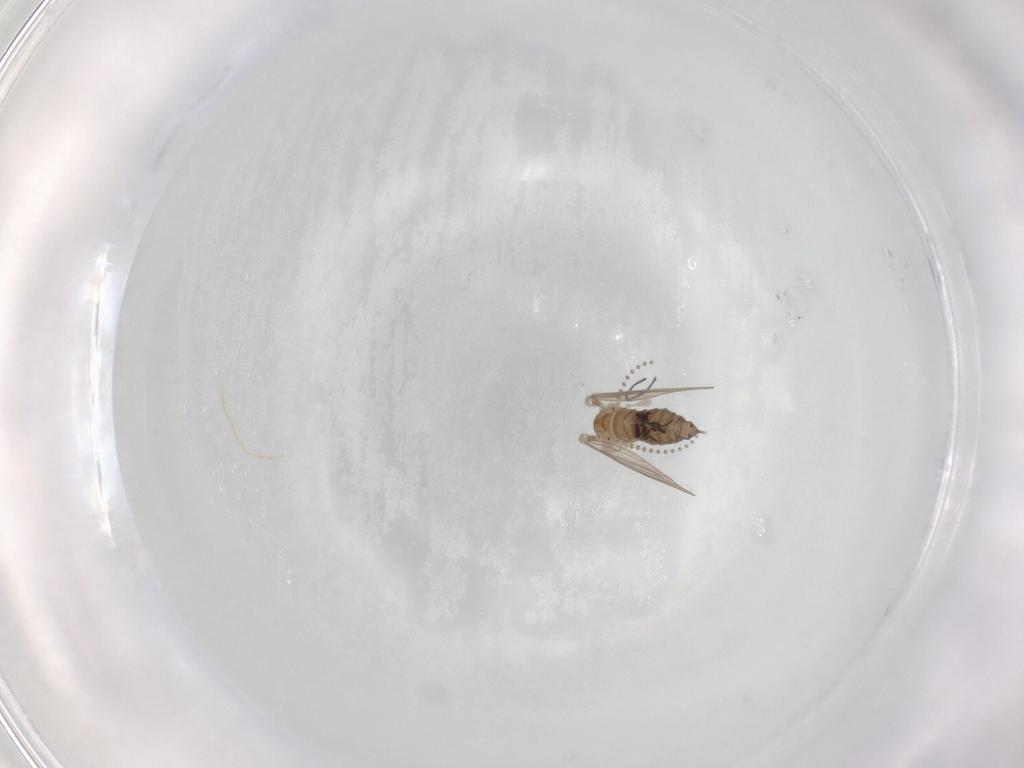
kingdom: Animalia
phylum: Arthropoda
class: Insecta
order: Diptera
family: Psychodidae
